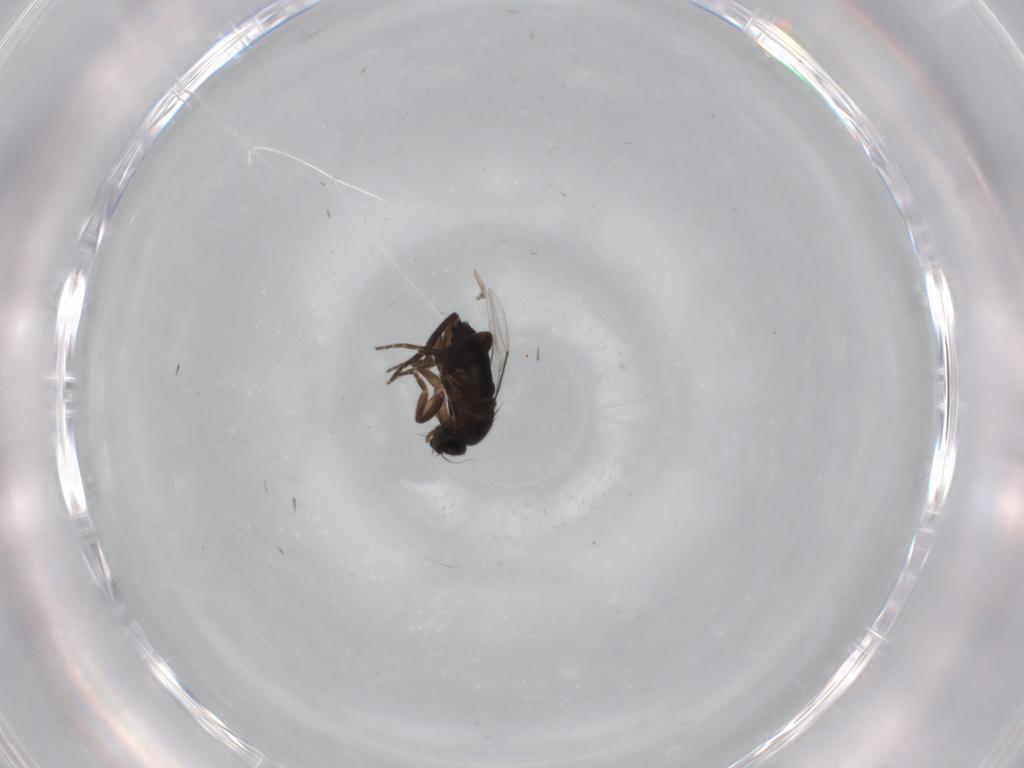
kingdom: Animalia
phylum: Arthropoda
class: Insecta
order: Diptera
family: Phoridae
